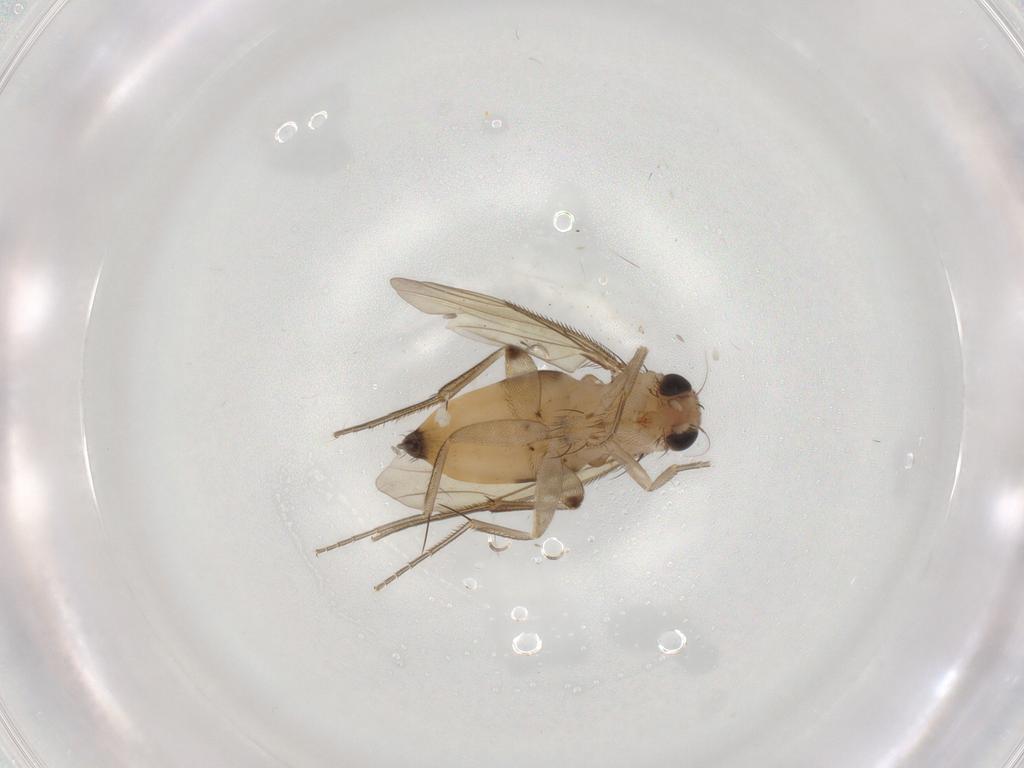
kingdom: Animalia
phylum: Arthropoda
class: Insecta
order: Diptera
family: Phoridae
